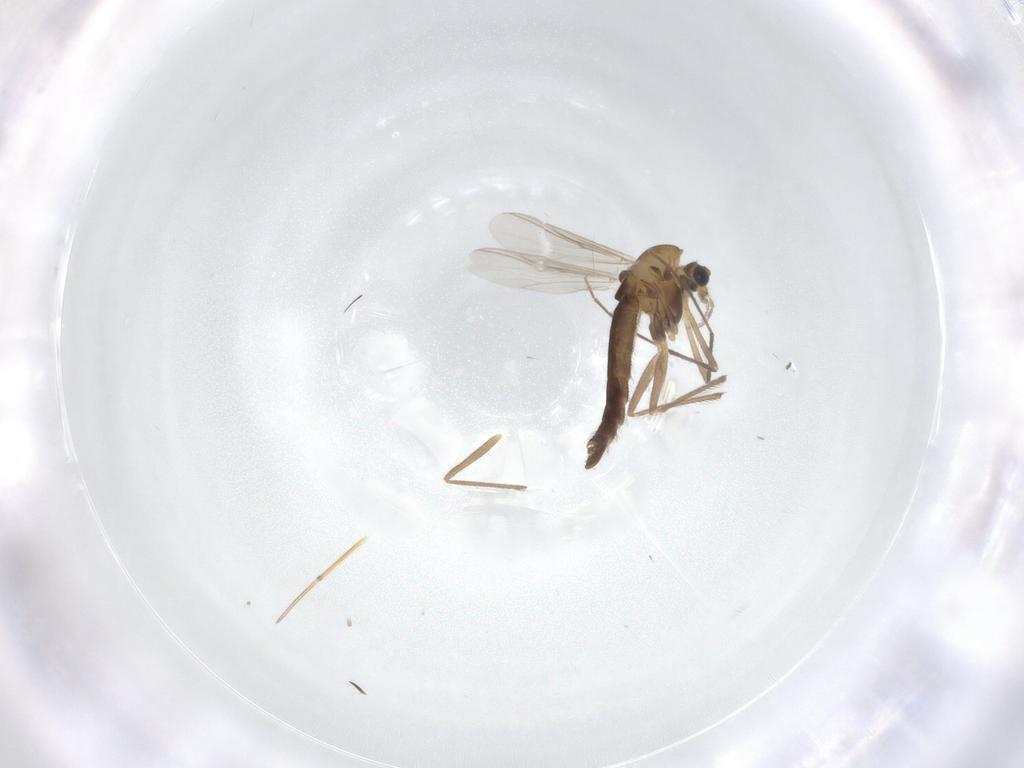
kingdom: Animalia
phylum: Arthropoda
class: Insecta
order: Diptera
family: Chironomidae
